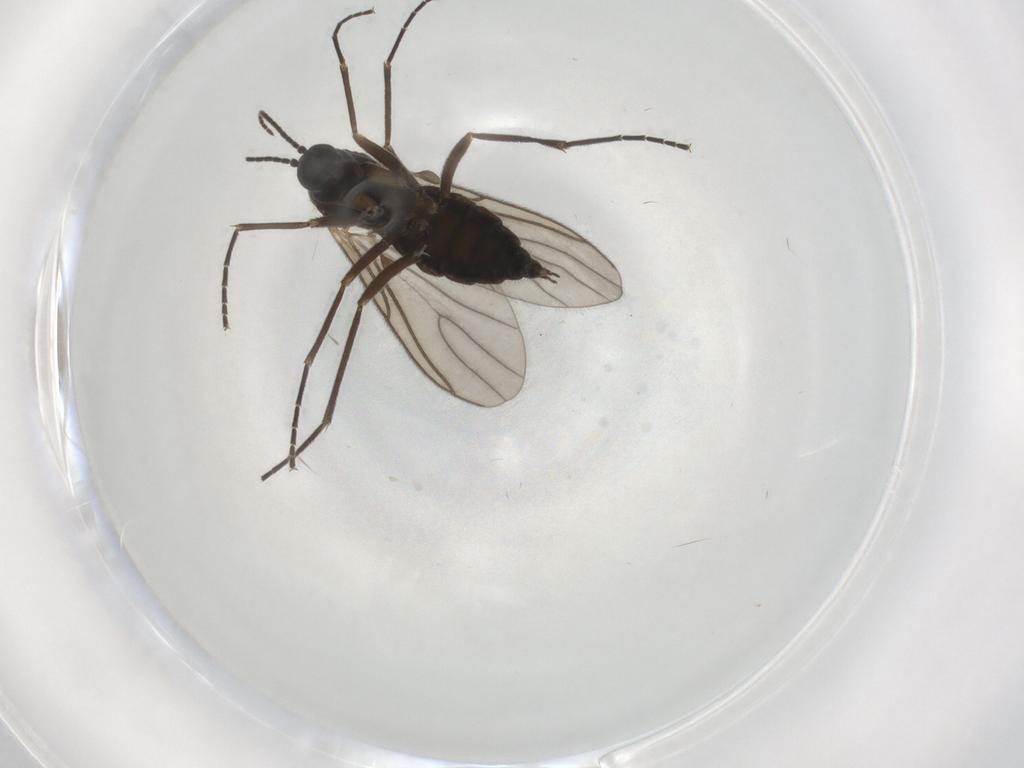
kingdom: Animalia
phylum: Arthropoda
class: Insecta
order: Diptera
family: Sciaridae
